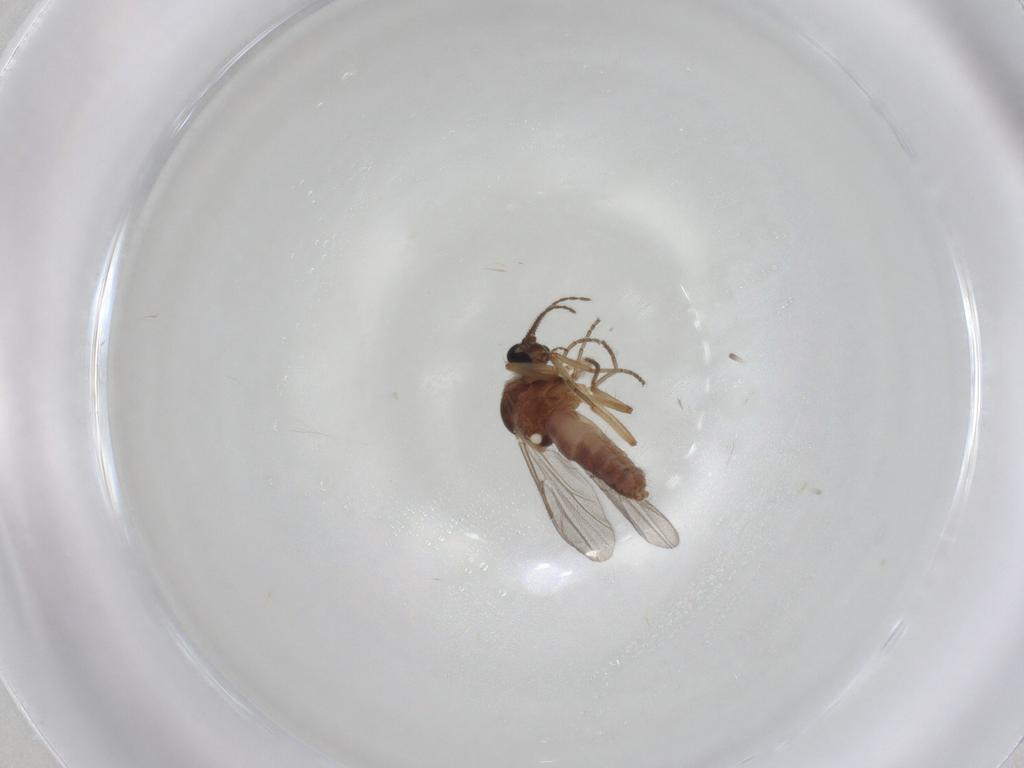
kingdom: Animalia
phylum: Arthropoda
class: Insecta
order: Diptera
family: Ceratopogonidae
